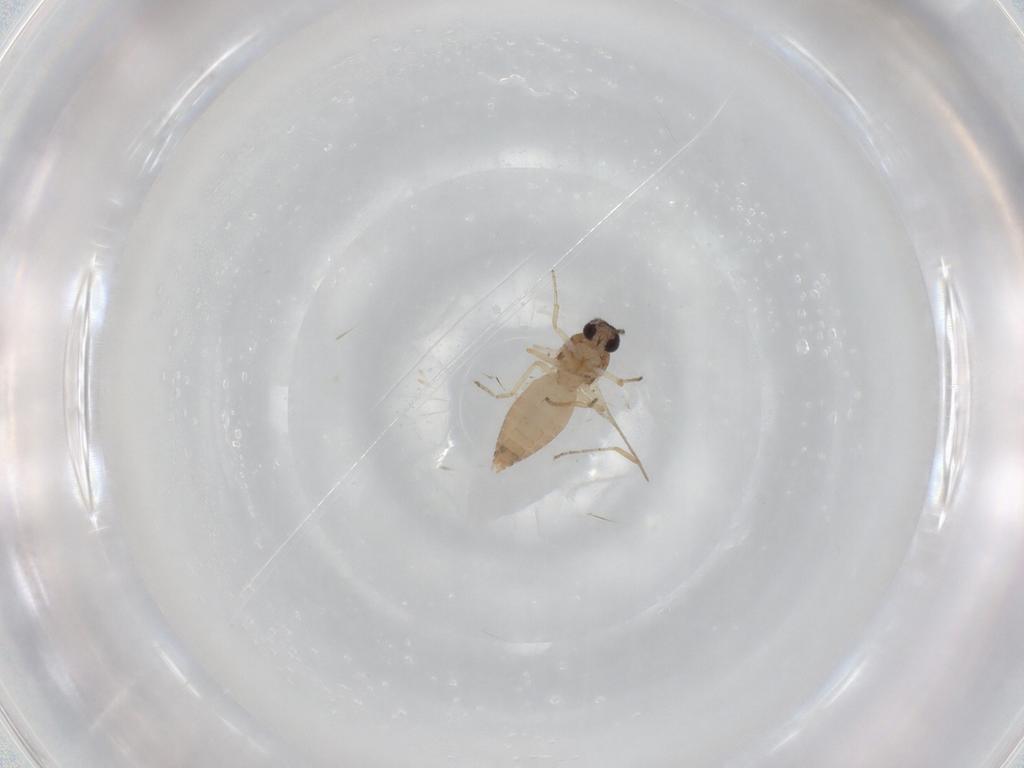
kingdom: Animalia
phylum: Arthropoda
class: Insecta
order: Diptera
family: Ceratopogonidae
